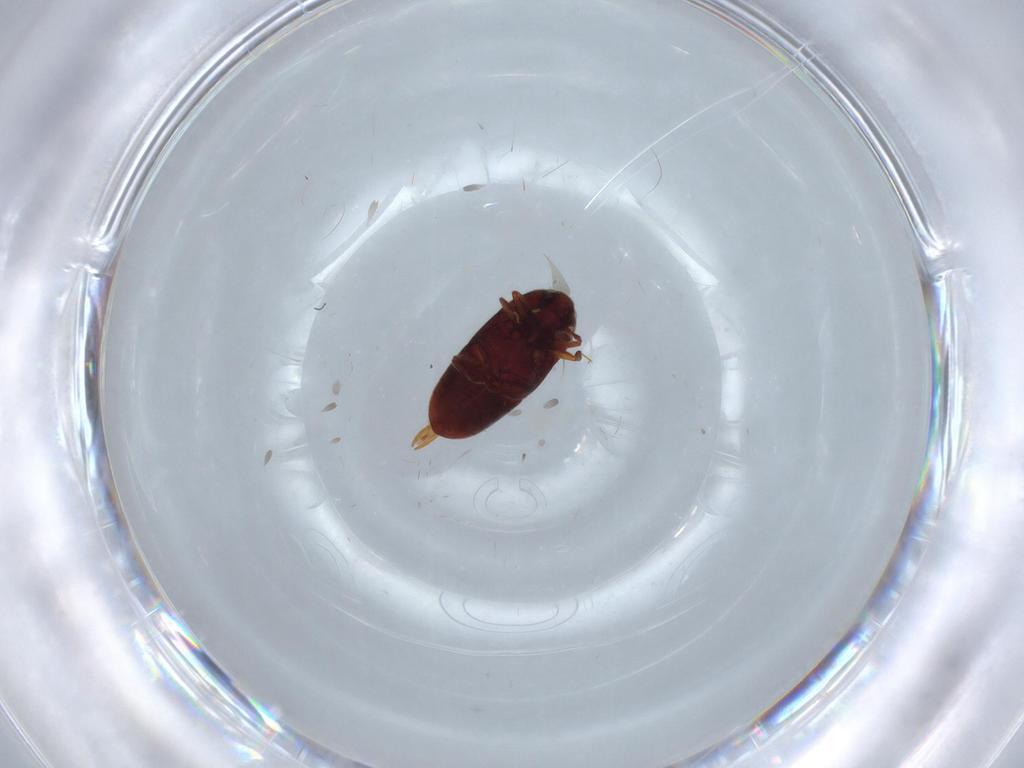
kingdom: Animalia
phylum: Arthropoda
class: Insecta
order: Coleoptera
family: Throscidae
